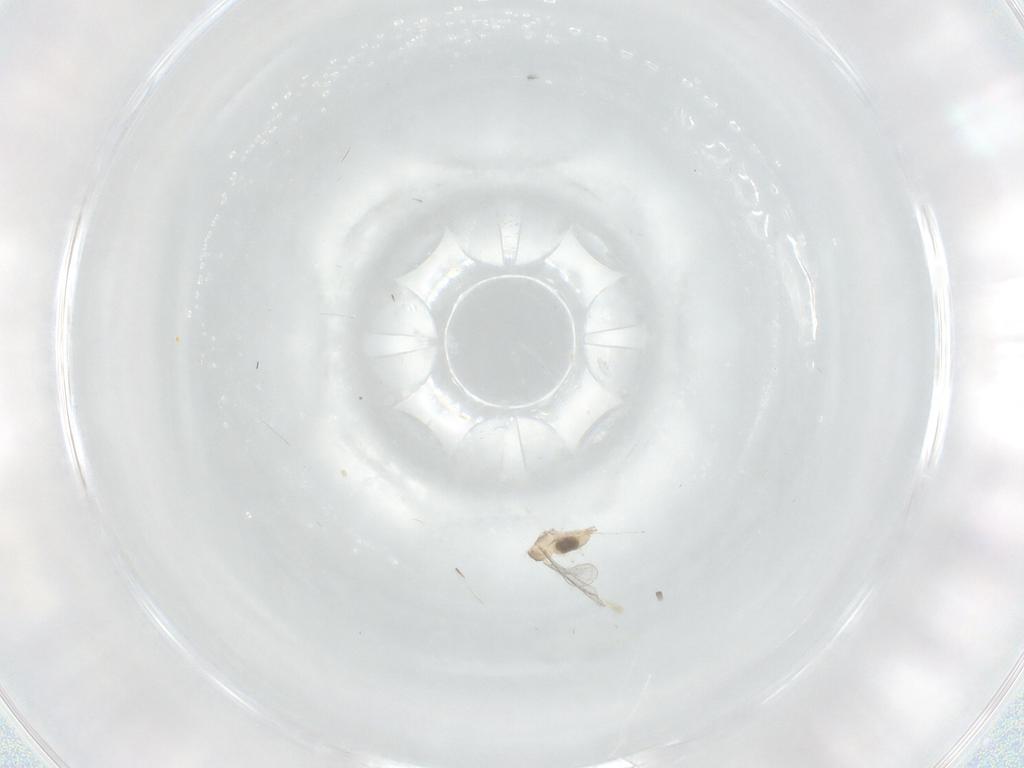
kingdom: Animalia
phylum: Arthropoda
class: Insecta
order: Diptera
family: Cecidomyiidae
